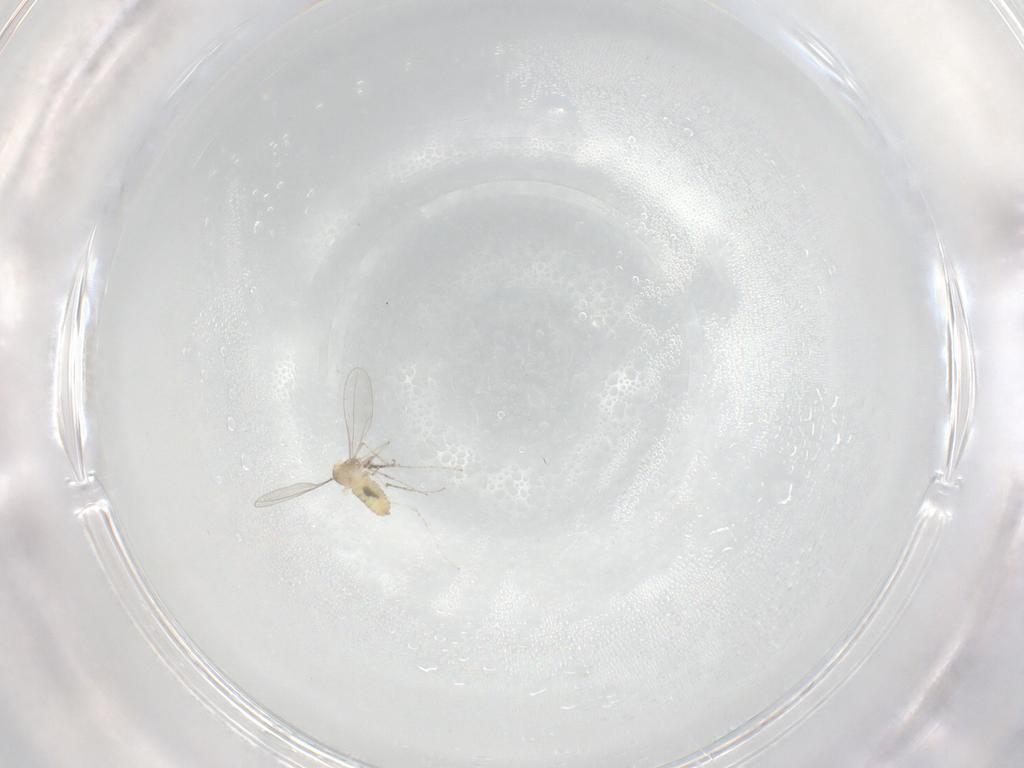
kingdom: Animalia
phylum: Arthropoda
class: Insecta
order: Diptera
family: Cecidomyiidae
